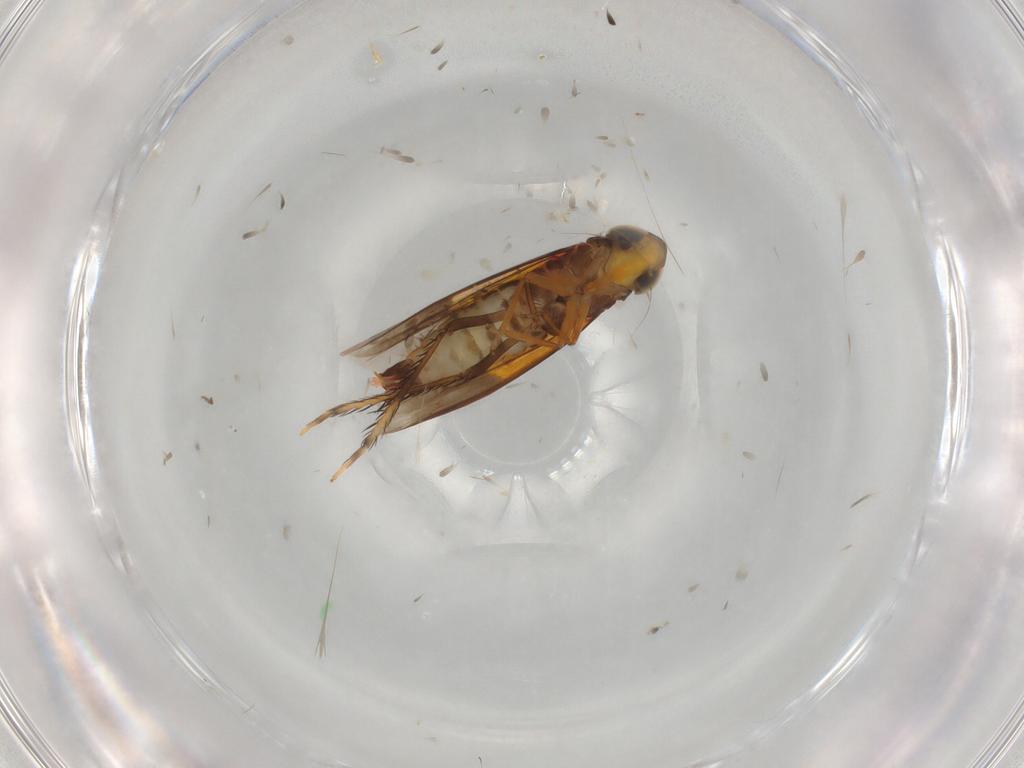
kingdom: Animalia
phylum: Arthropoda
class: Insecta
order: Hemiptera
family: Cicadellidae
